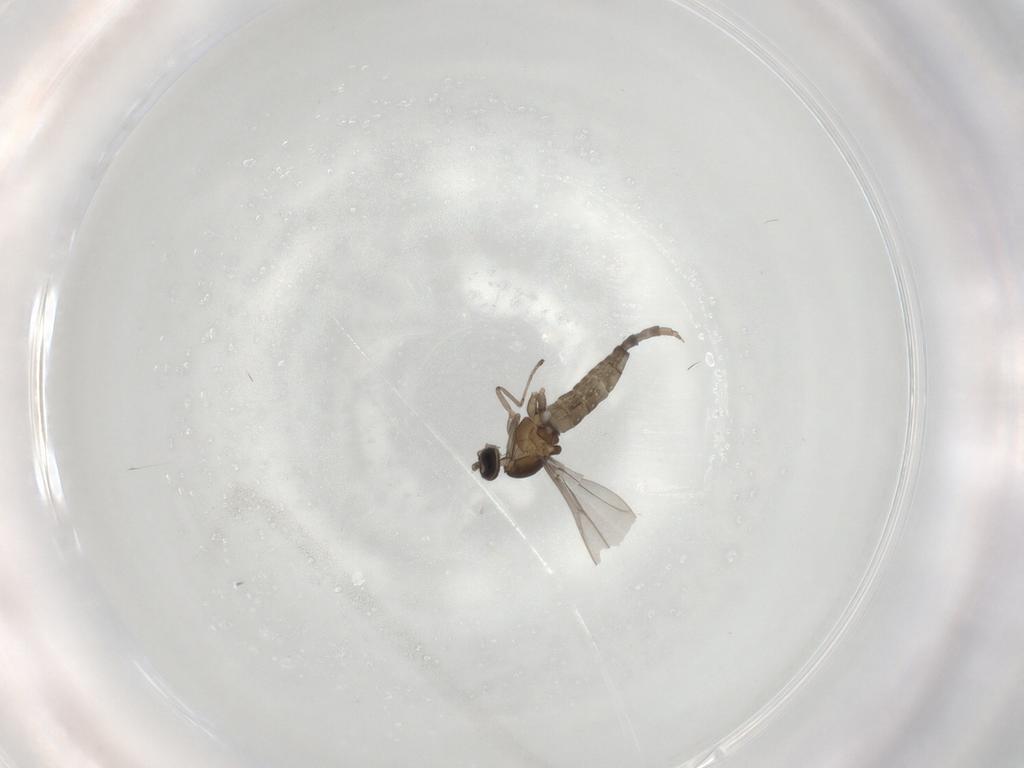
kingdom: Animalia
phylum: Arthropoda
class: Insecta
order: Diptera
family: Cecidomyiidae
